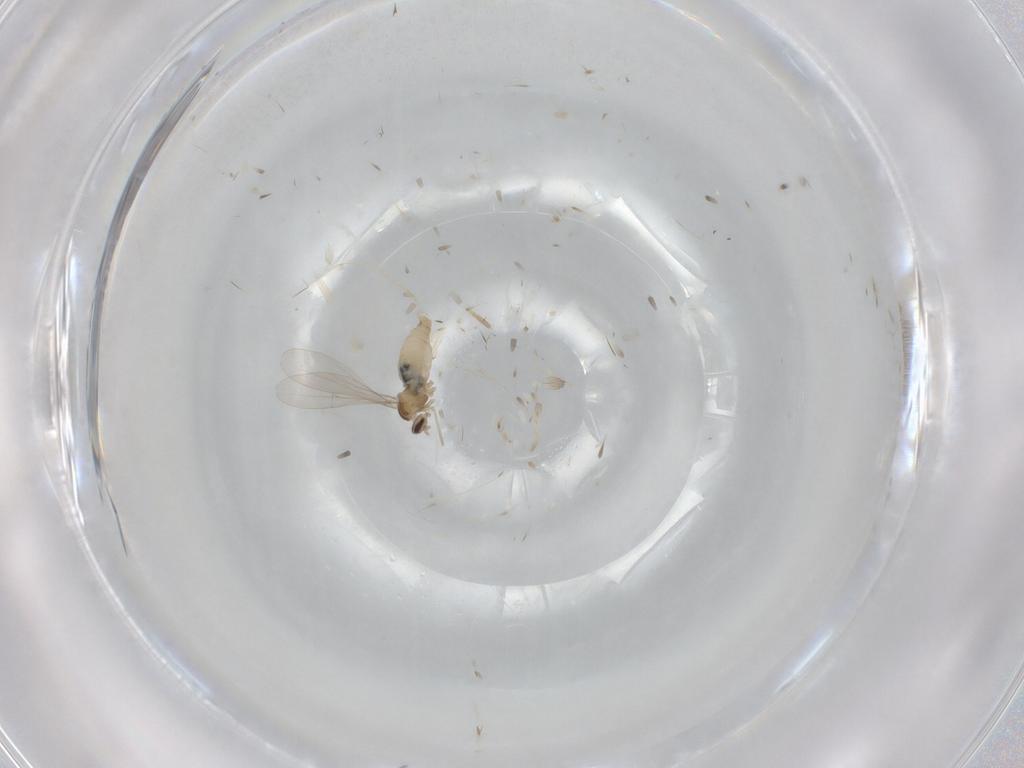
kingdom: Animalia
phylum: Arthropoda
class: Insecta
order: Diptera
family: Cecidomyiidae
